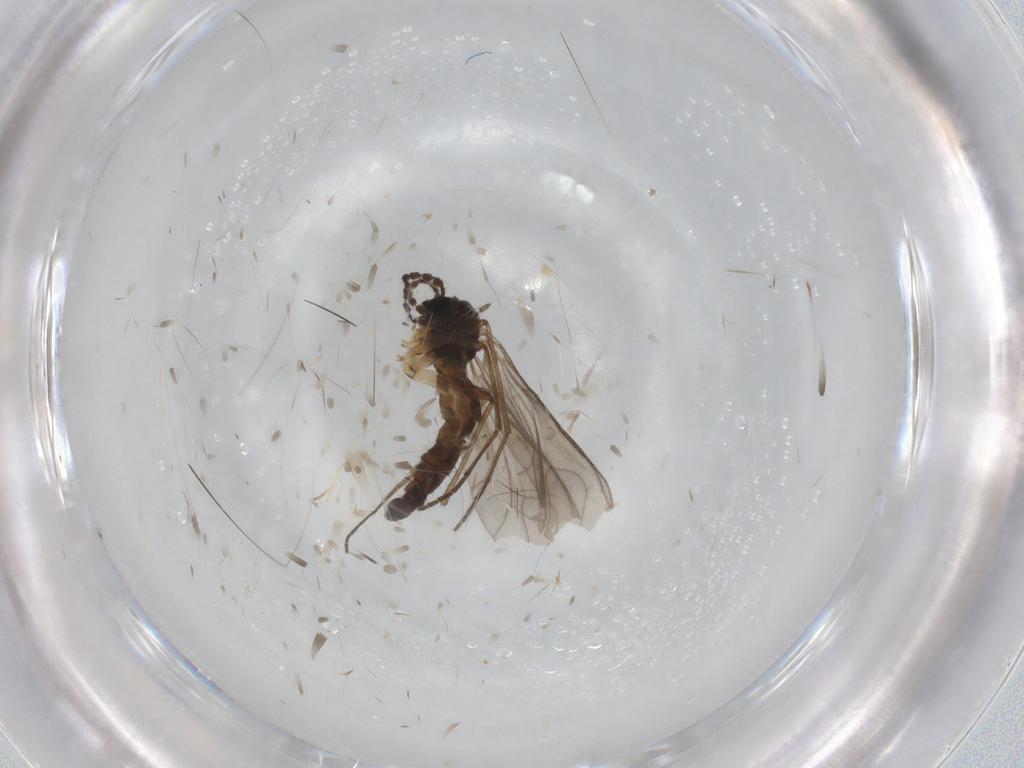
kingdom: Animalia
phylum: Arthropoda
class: Insecta
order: Diptera
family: Sciaridae
